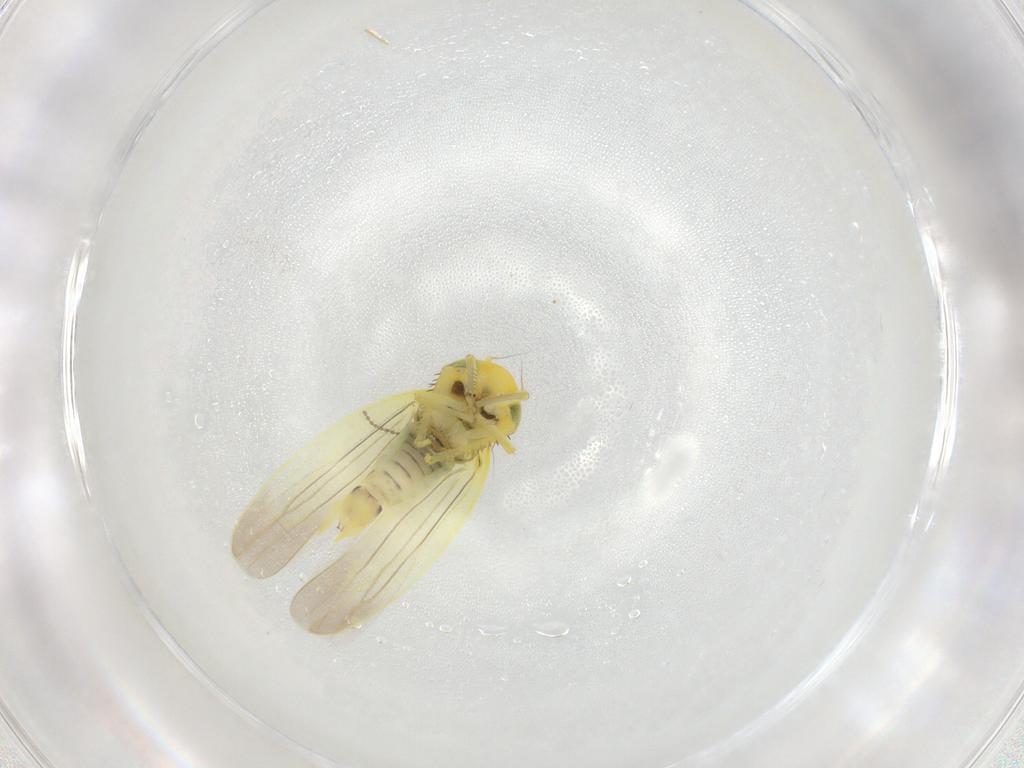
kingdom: Animalia
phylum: Arthropoda
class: Insecta
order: Hemiptera
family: Cicadellidae
